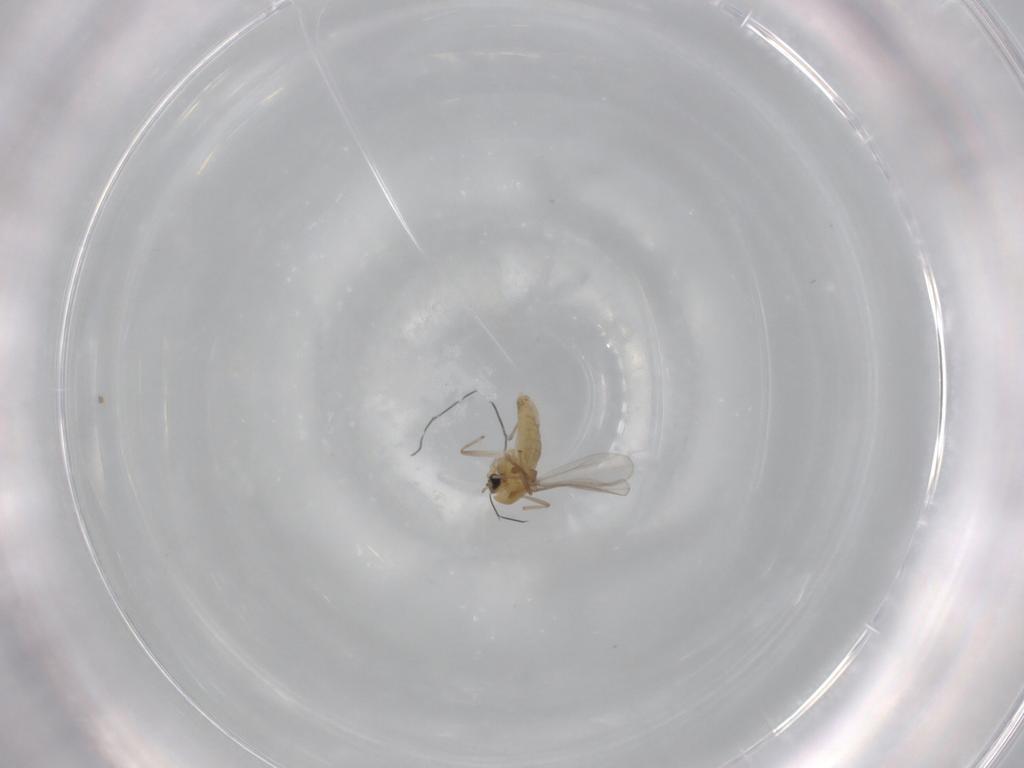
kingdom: Animalia
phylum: Arthropoda
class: Insecta
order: Diptera
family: Chironomidae
